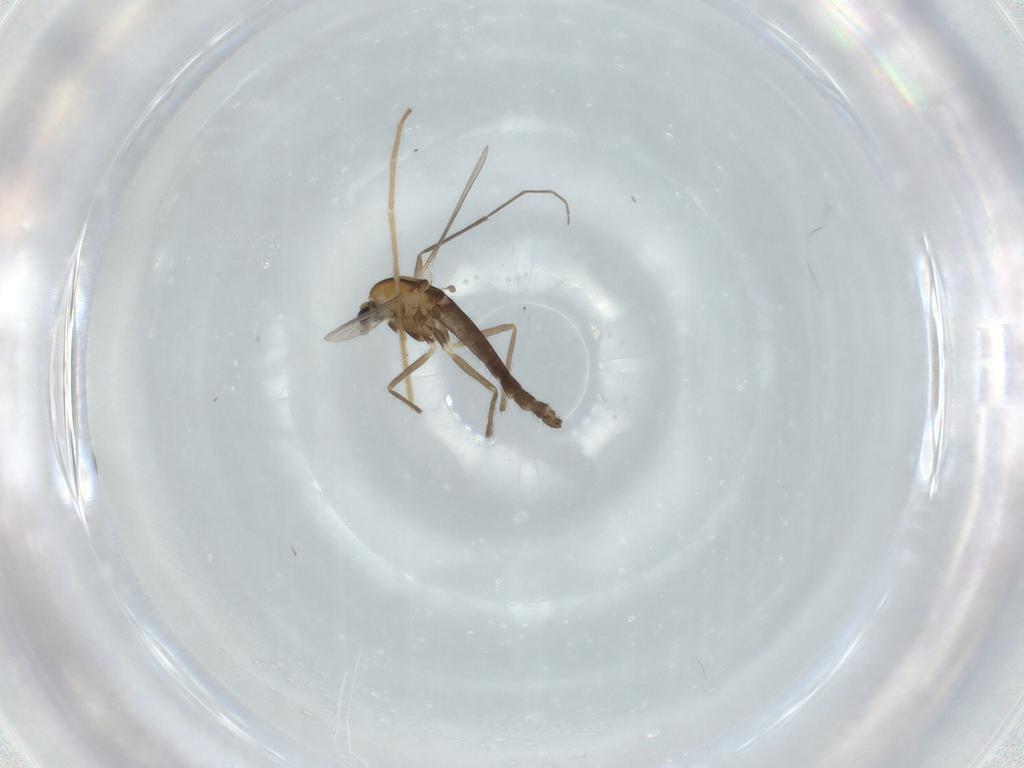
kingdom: Animalia
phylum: Arthropoda
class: Insecta
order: Diptera
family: Chironomidae
